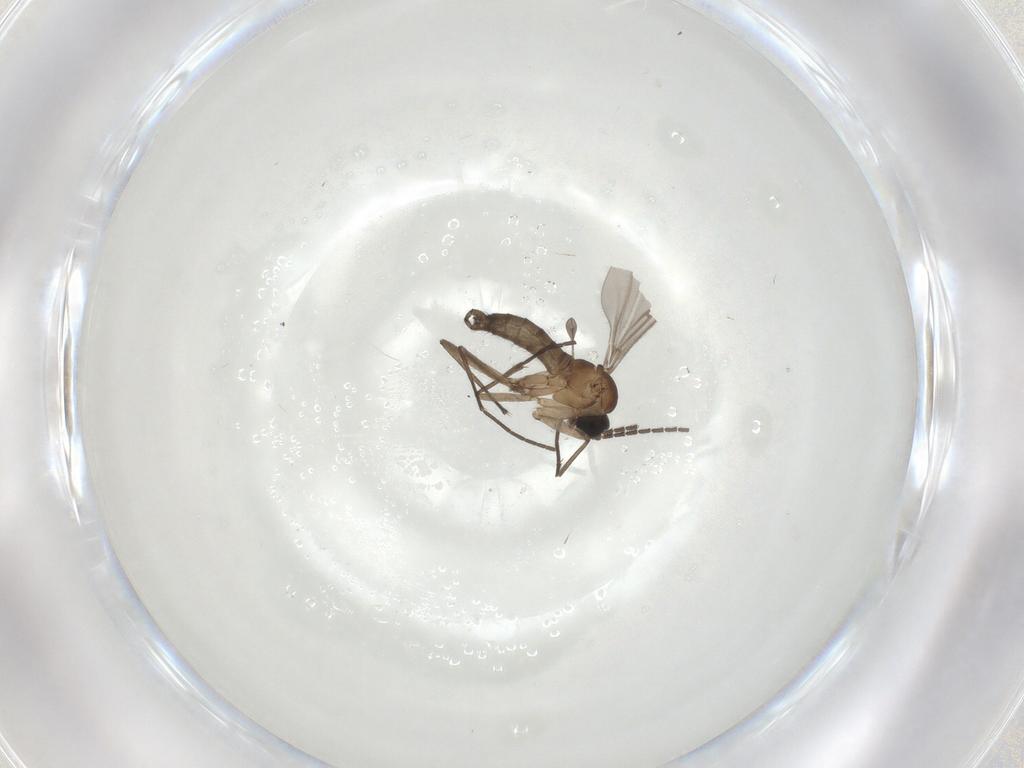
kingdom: Animalia
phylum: Arthropoda
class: Insecta
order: Diptera
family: Sciaridae
